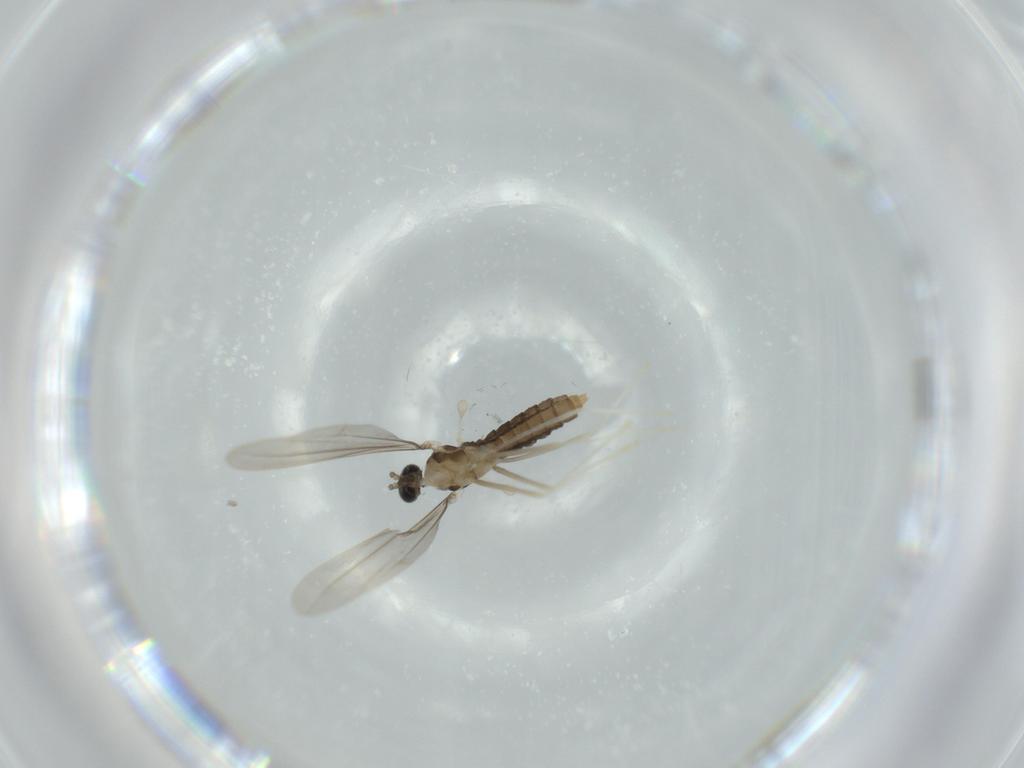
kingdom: Animalia
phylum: Arthropoda
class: Insecta
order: Diptera
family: Cecidomyiidae
